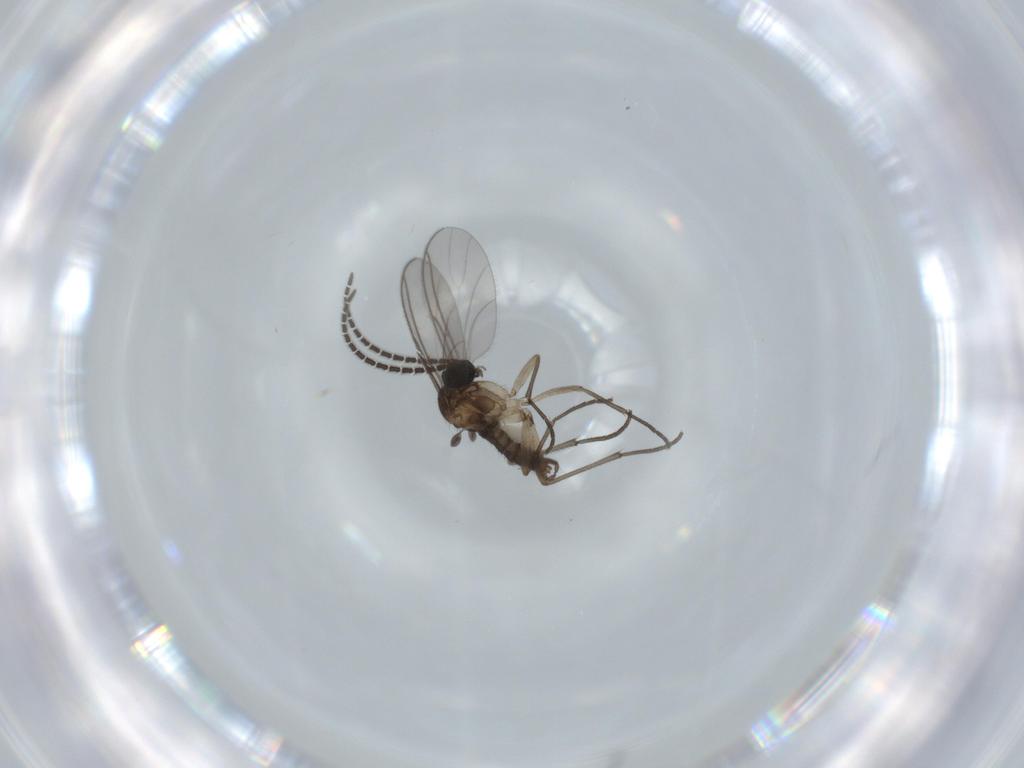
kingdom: Animalia
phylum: Arthropoda
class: Insecta
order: Diptera
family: Sciaridae
